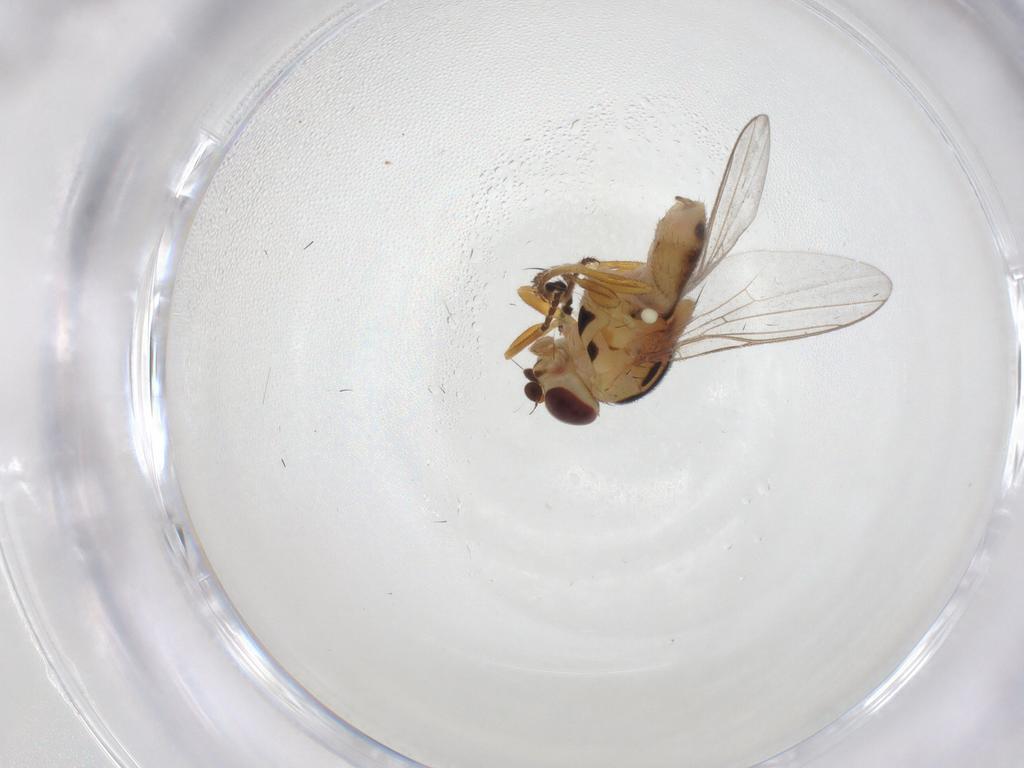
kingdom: Animalia
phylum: Arthropoda
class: Insecta
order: Diptera
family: Stratiomyidae
